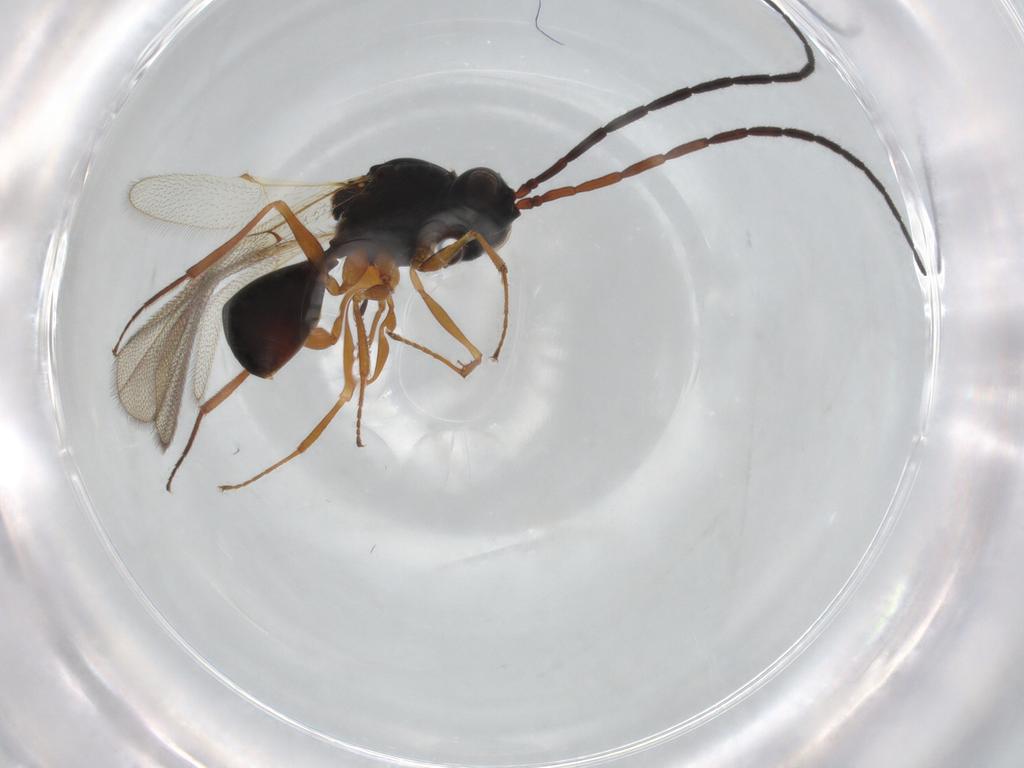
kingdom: Animalia
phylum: Arthropoda
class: Insecta
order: Hymenoptera
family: Figitidae
